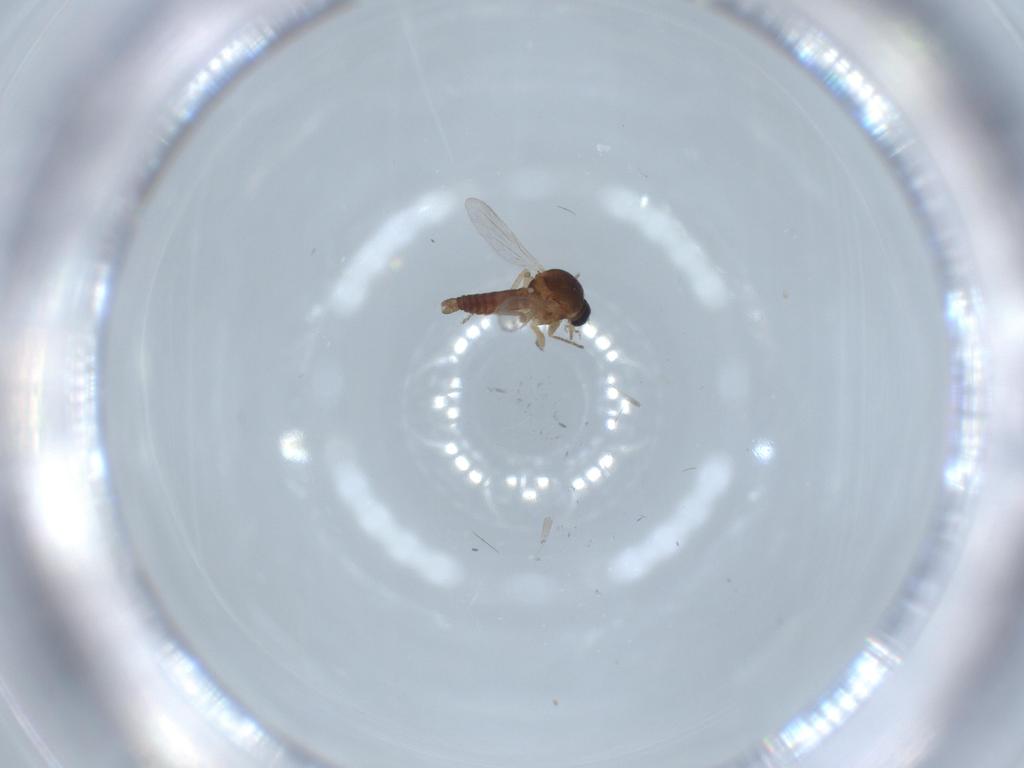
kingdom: Animalia
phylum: Arthropoda
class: Insecta
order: Diptera
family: Ceratopogonidae
